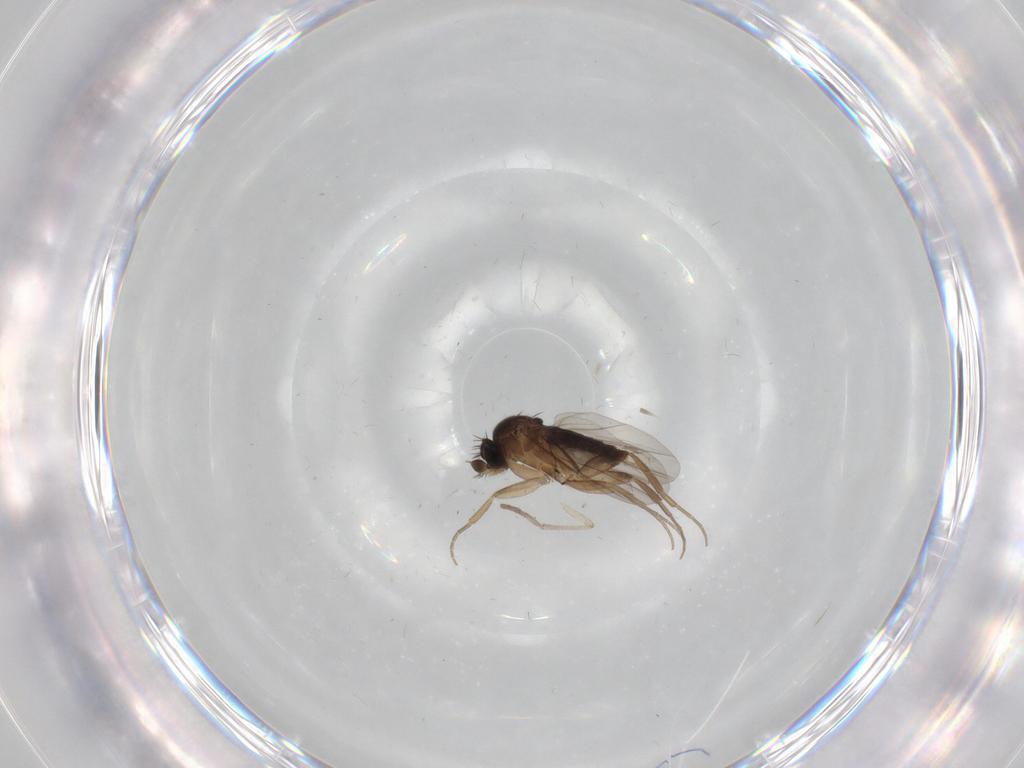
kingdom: Animalia
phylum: Arthropoda
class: Insecta
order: Diptera
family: Phoridae
